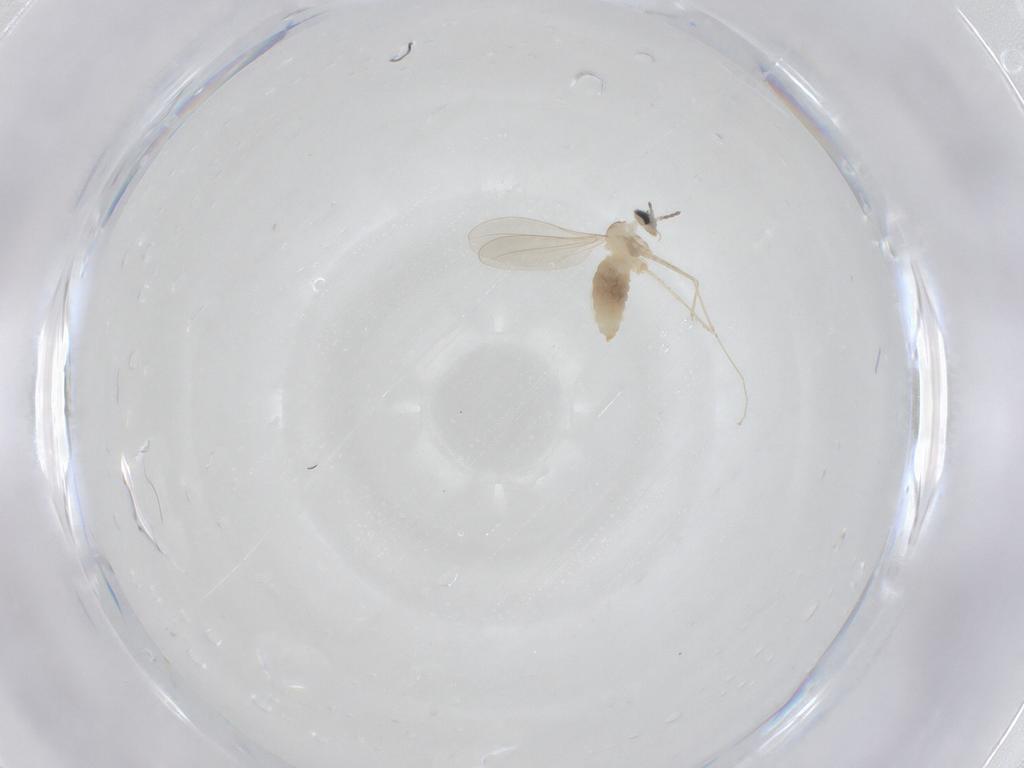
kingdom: Animalia
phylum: Arthropoda
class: Insecta
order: Diptera
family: Cecidomyiidae
